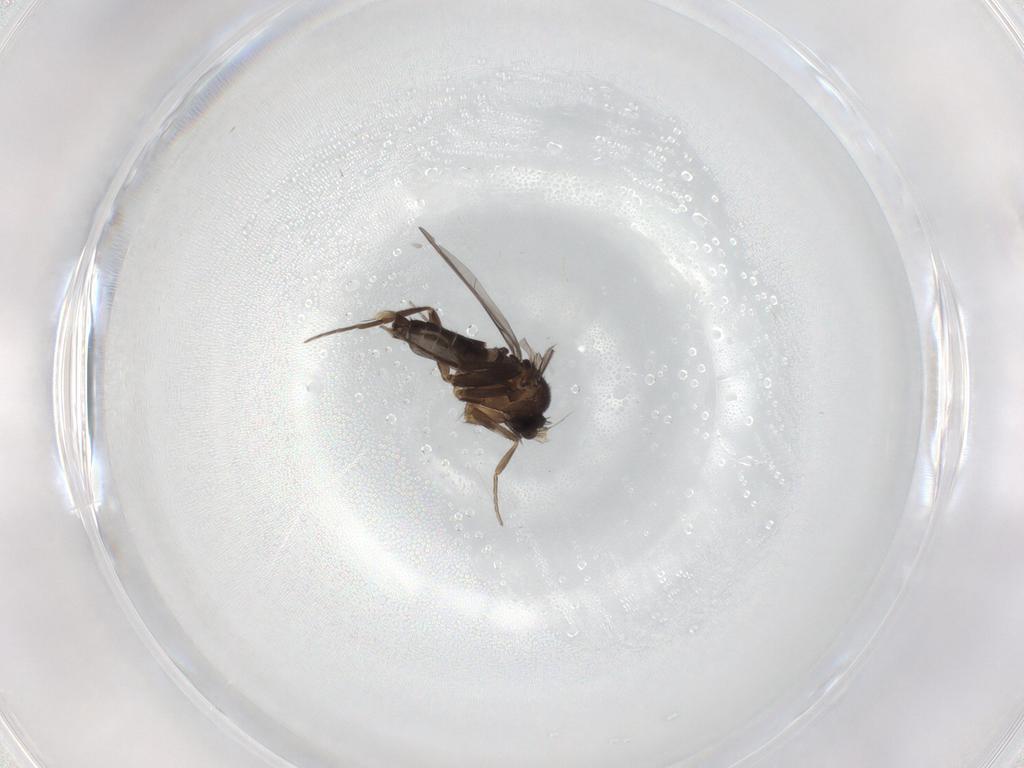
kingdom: Animalia
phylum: Arthropoda
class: Insecta
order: Diptera
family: Phoridae
